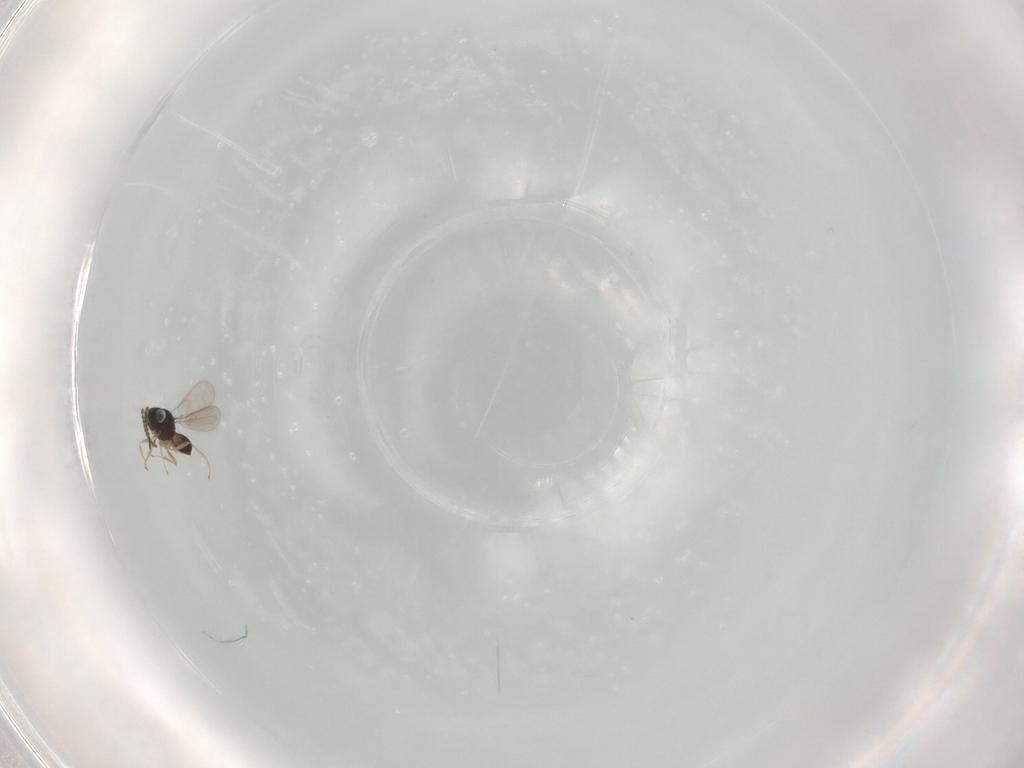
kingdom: Animalia
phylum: Arthropoda
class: Insecta
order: Hymenoptera
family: Scelionidae
